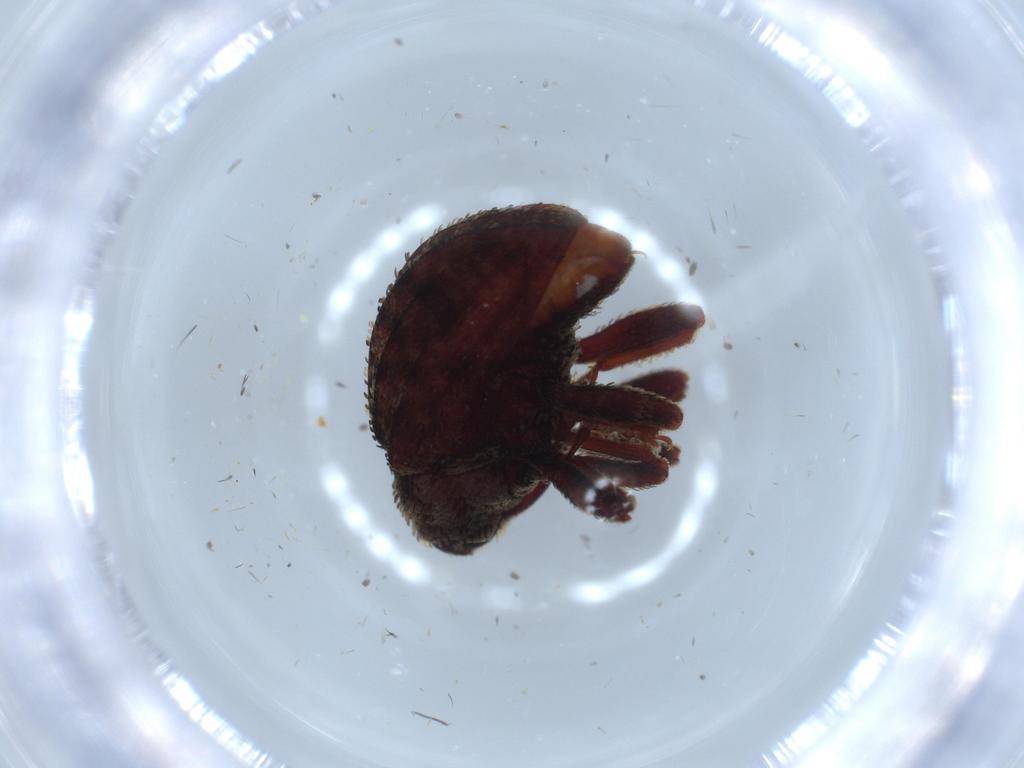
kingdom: Animalia
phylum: Arthropoda
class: Insecta
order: Coleoptera
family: Curculionidae
